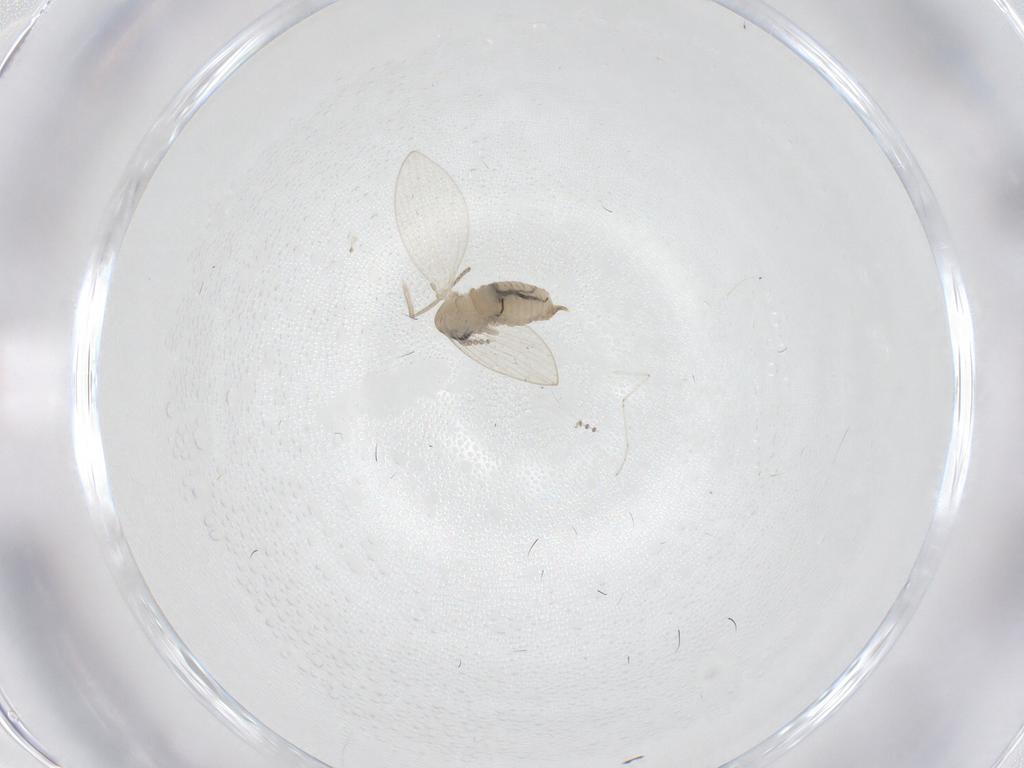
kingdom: Animalia
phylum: Arthropoda
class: Insecta
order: Diptera
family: Psychodidae
